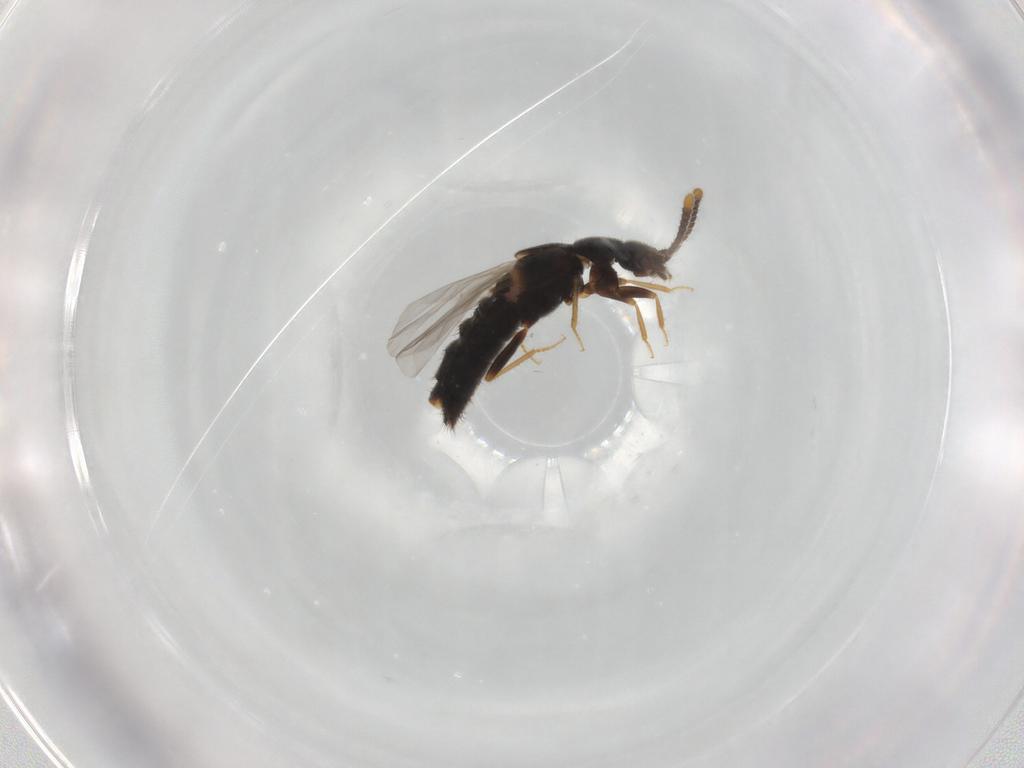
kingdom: Animalia
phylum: Arthropoda
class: Insecta
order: Coleoptera
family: Staphylinidae
